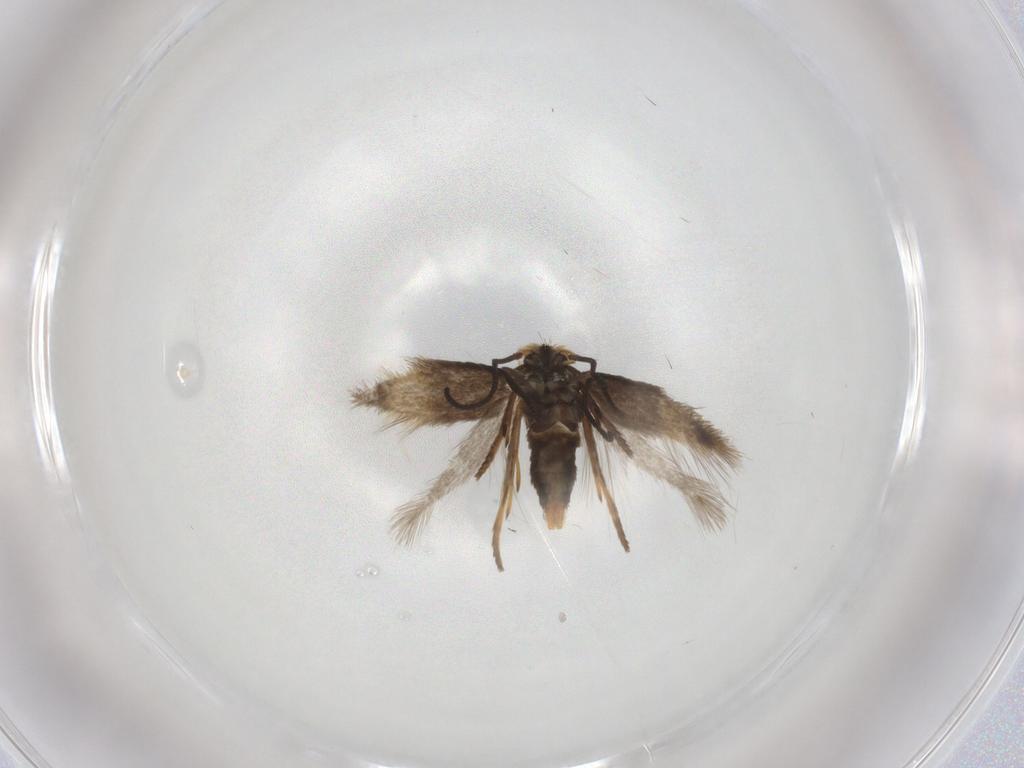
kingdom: Animalia
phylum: Arthropoda
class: Insecta
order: Lepidoptera
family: Nepticulidae
